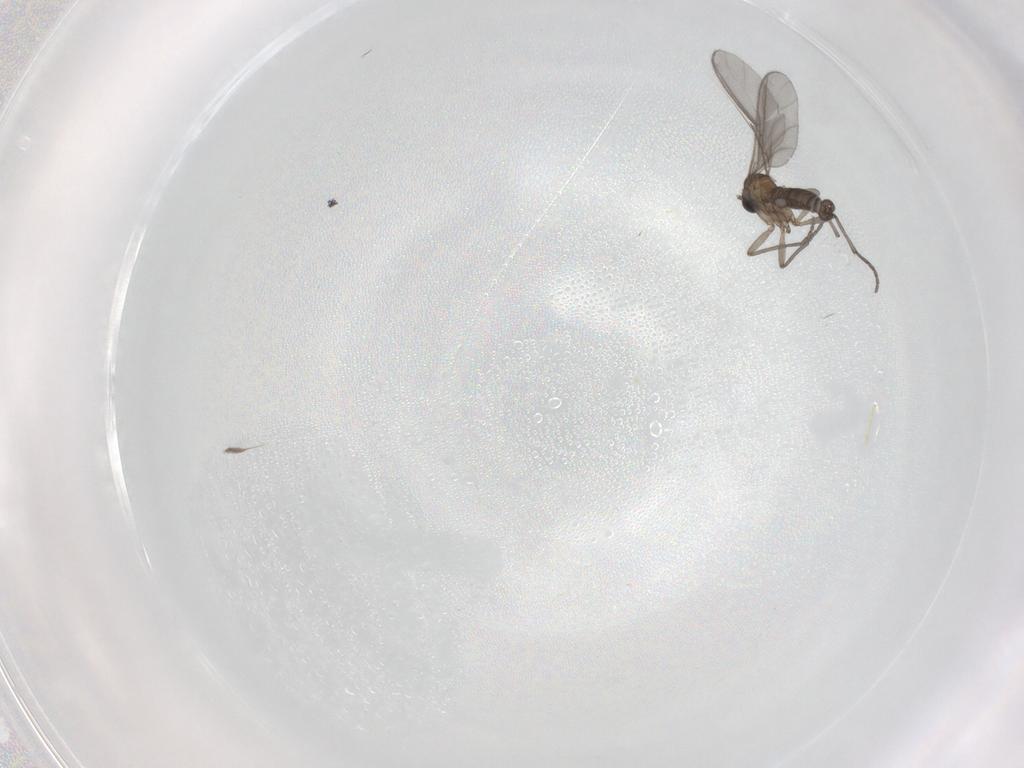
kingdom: Animalia
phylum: Arthropoda
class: Insecta
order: Diptera
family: Sciaridae
